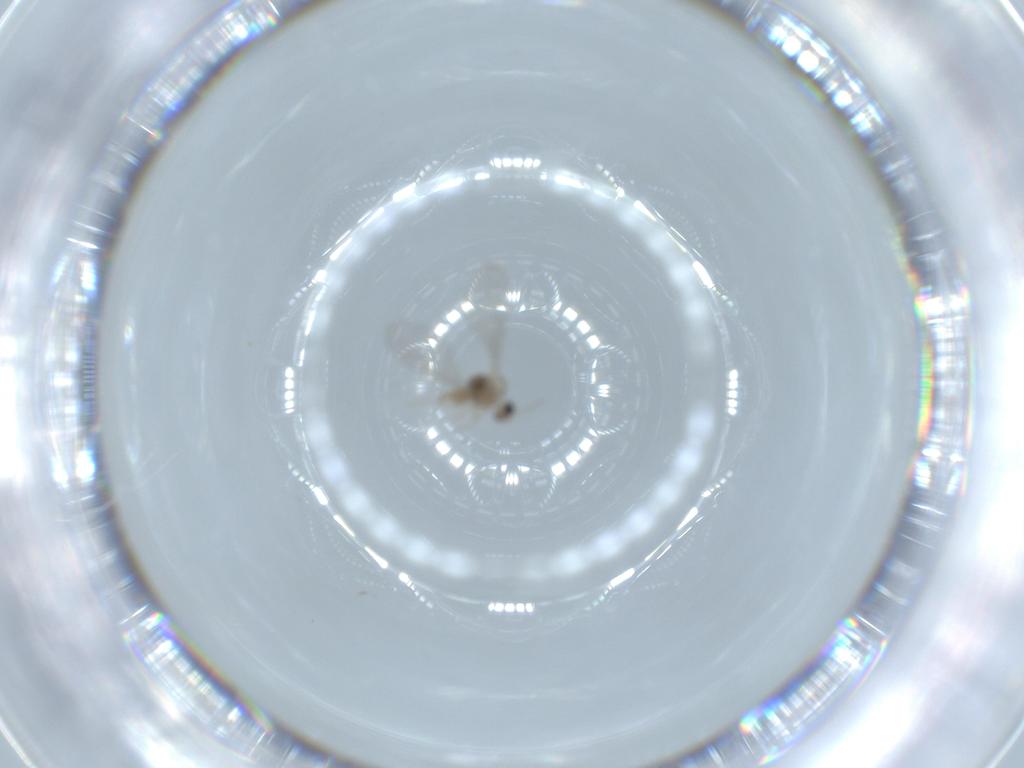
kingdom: Animalia
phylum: Arthropoda
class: Insecta
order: Diptera
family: Cecidomyiidae
